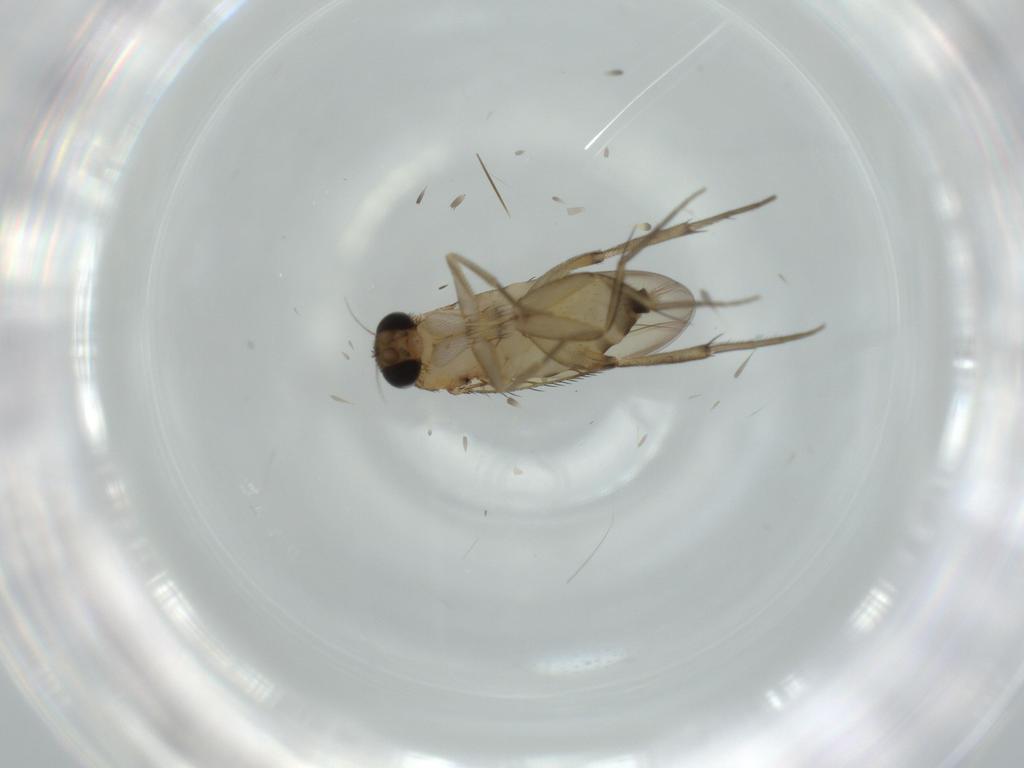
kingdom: Animalia
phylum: Arthropoda
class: Insecta
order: Diptera
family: Phoridae
